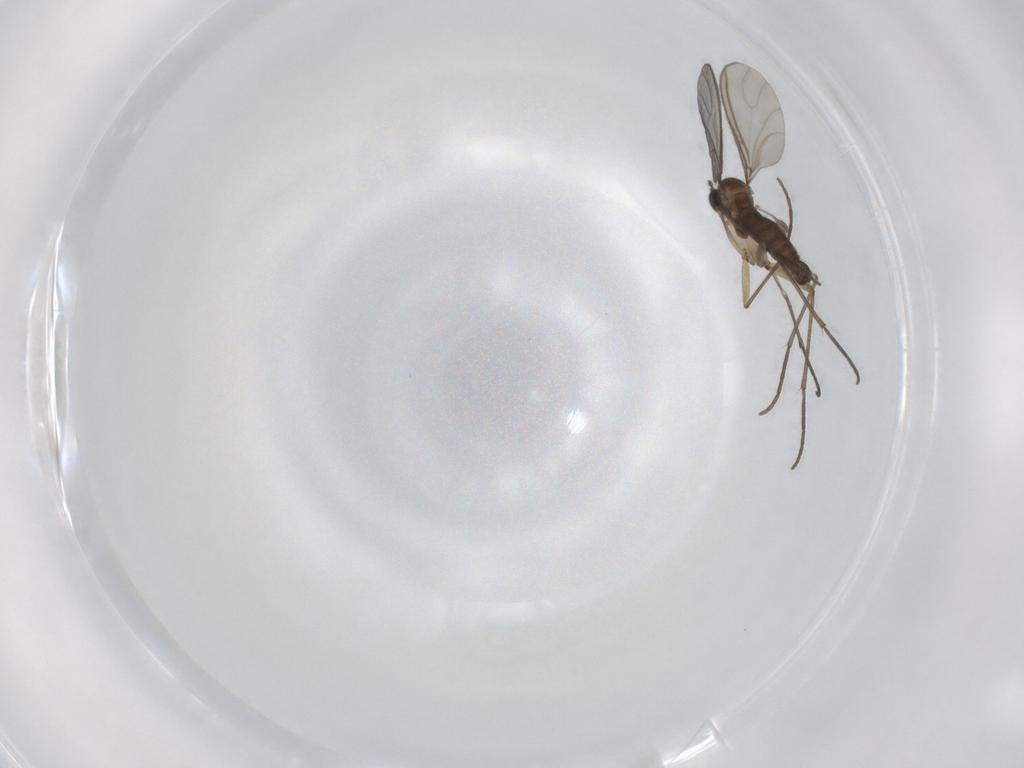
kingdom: Animalia
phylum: Arthropoda
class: Insecta
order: Diptera
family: Sciaridae
